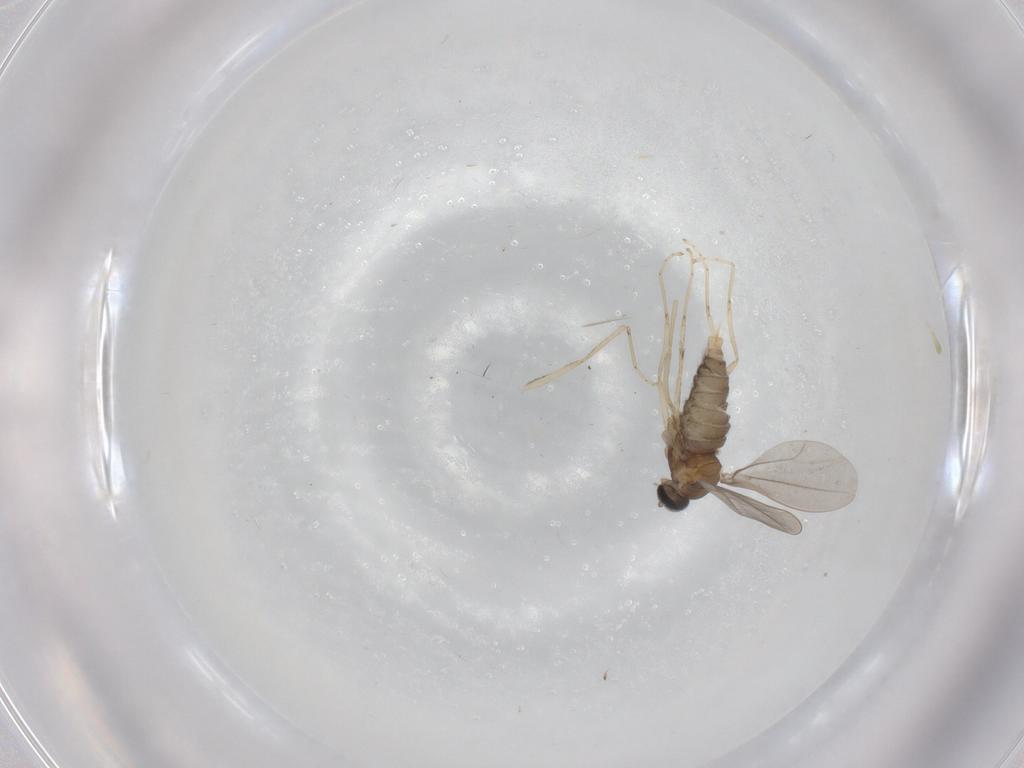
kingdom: Animalia
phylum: Arthropoda
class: Insecta
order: Diptera
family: Cecidomyiidae
